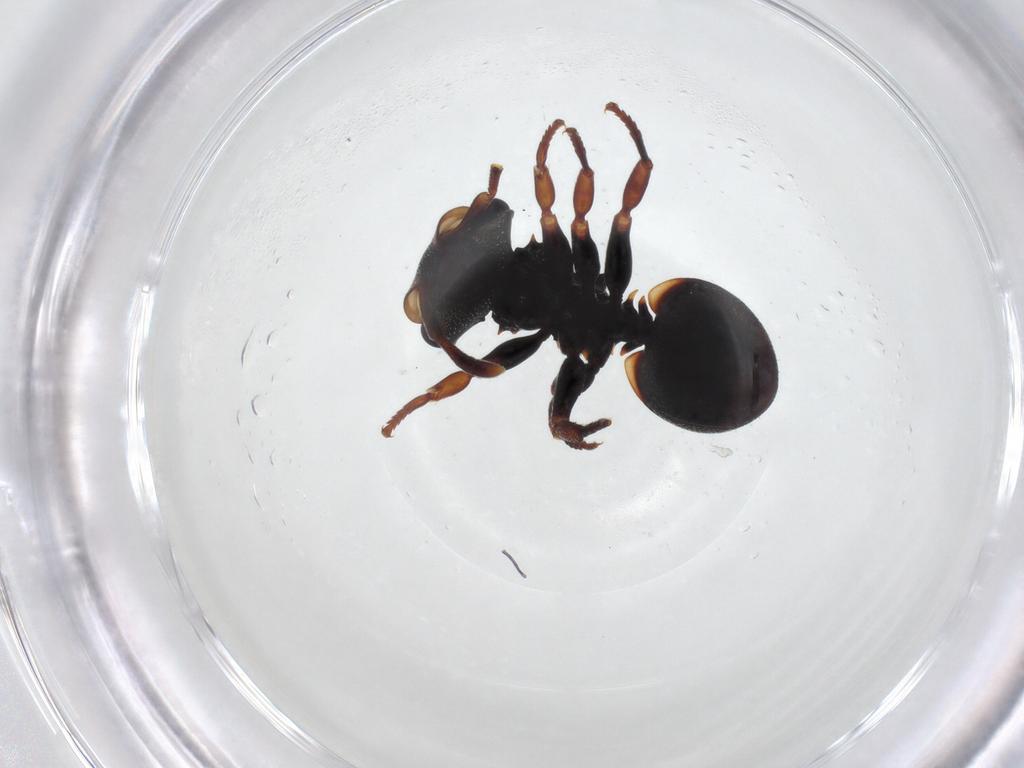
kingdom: Animalia
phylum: Arthropoda
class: Insecta
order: Hymenoptera
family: Formicidae
